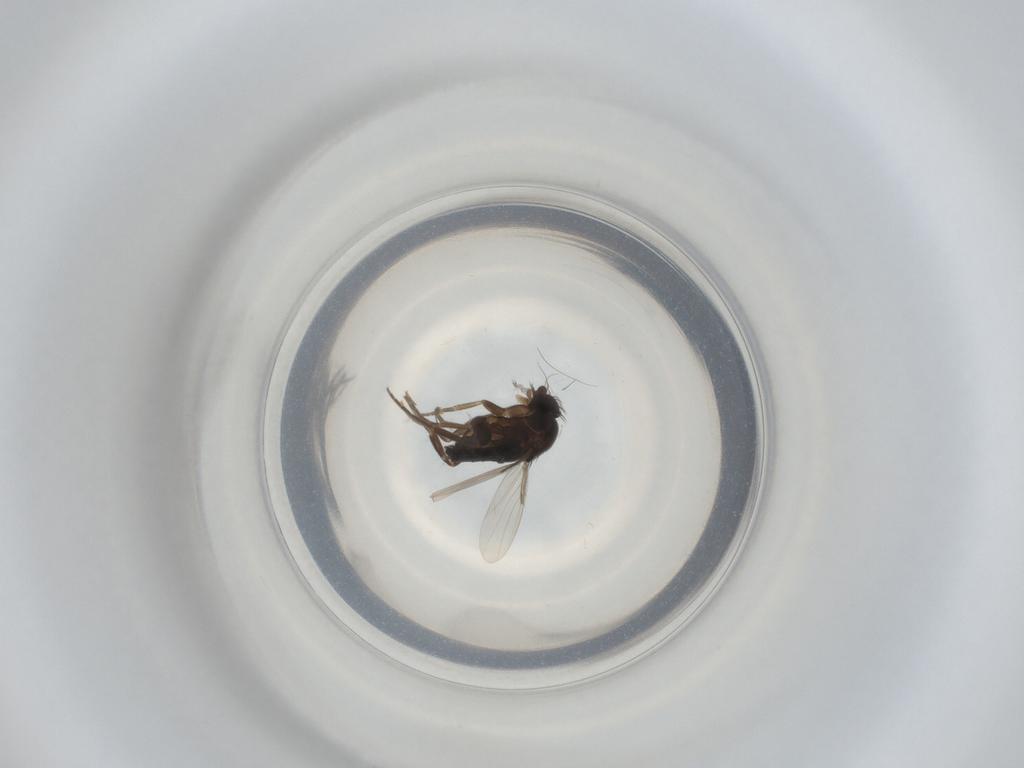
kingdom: Animalia
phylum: Arthropoda
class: Insecta
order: Diptera
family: Phoridae
